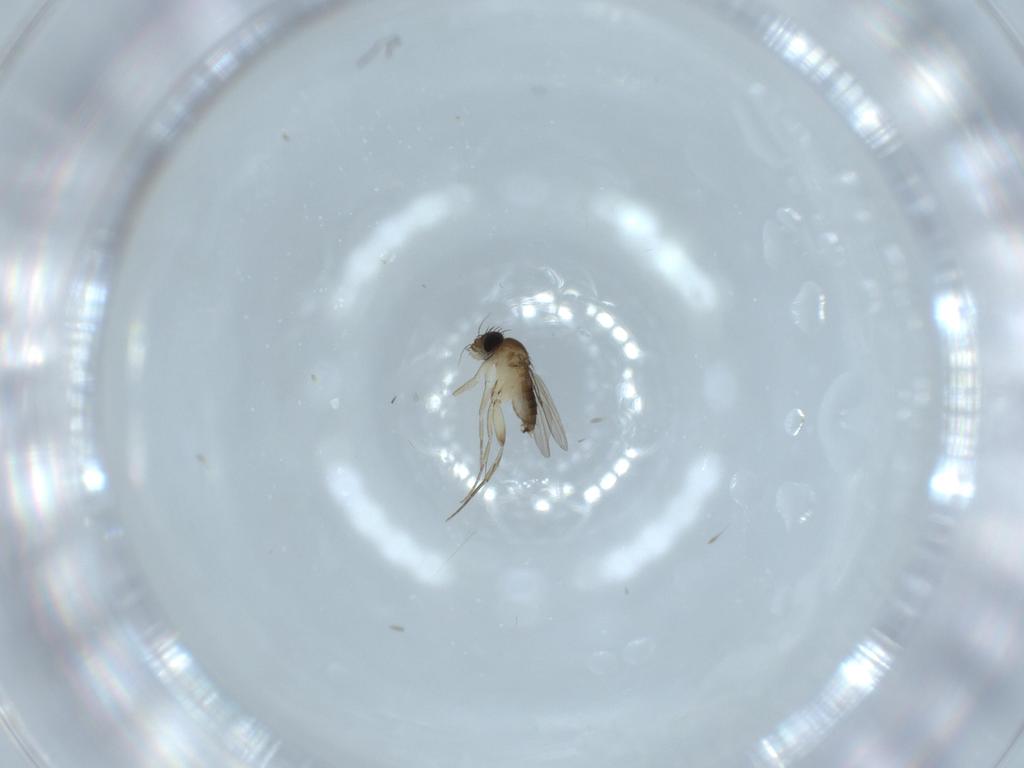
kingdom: Animalia
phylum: Arthropoda
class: Insecta
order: Diptera
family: Phoridae
